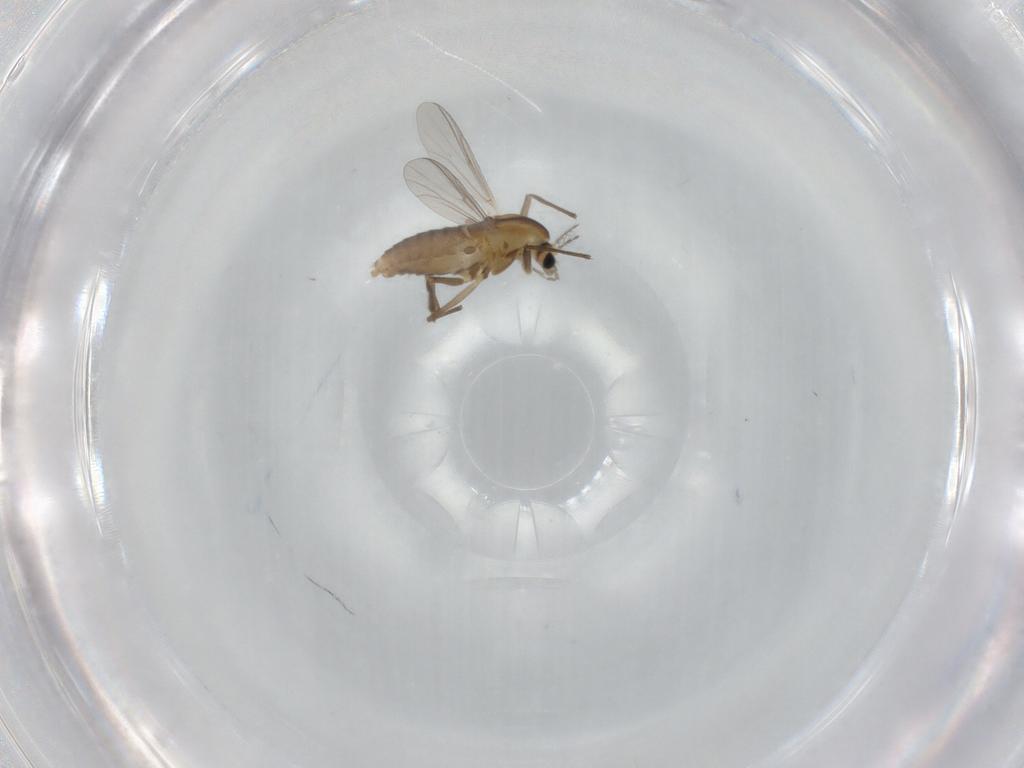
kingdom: Animalia
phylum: Arthropoda
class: Insecta
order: Diptera
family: Chironomidae
